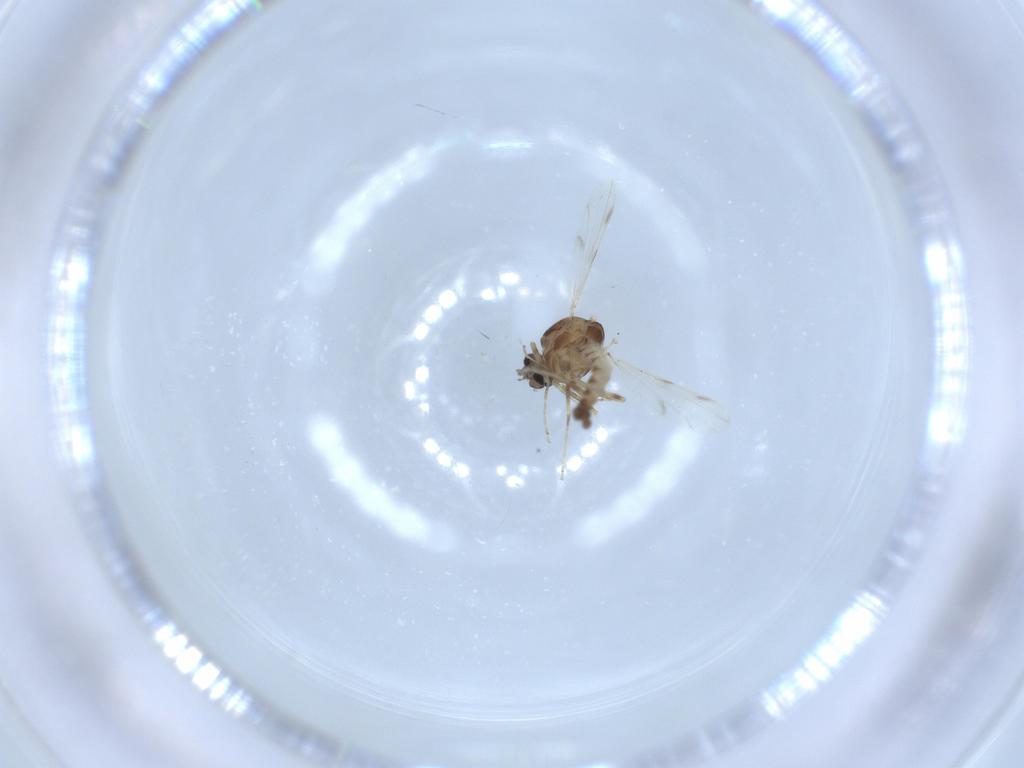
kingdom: Animalia
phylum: Arthropoda
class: Insecta
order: Diptera
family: Ceratopogonidae
